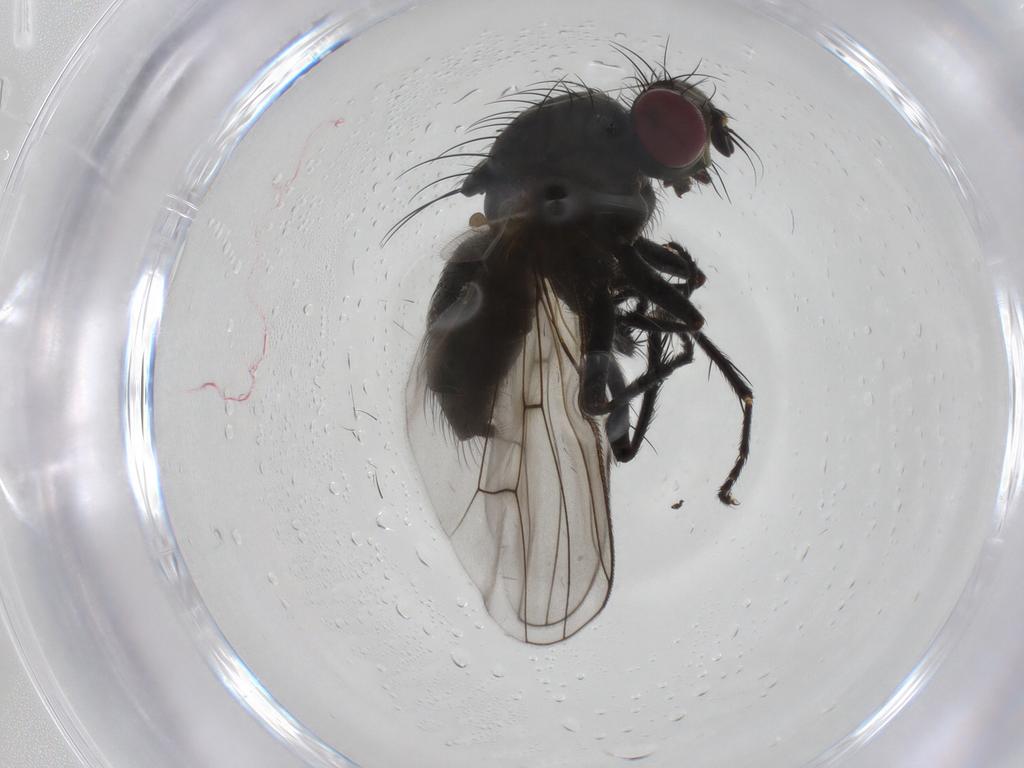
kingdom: Animalia
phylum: Arthropoda
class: Insecta
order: Diptera
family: Muscidae
